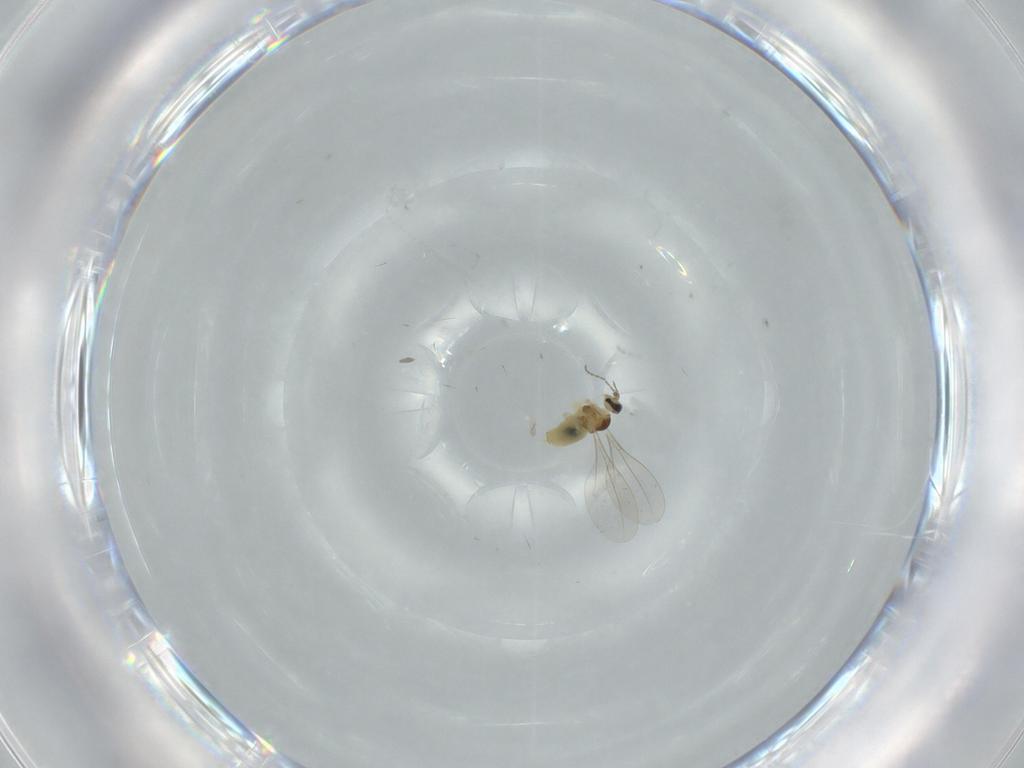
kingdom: Animalia
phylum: Arthropoda
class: Insecta
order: Diptera
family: Cecidomyiidae
